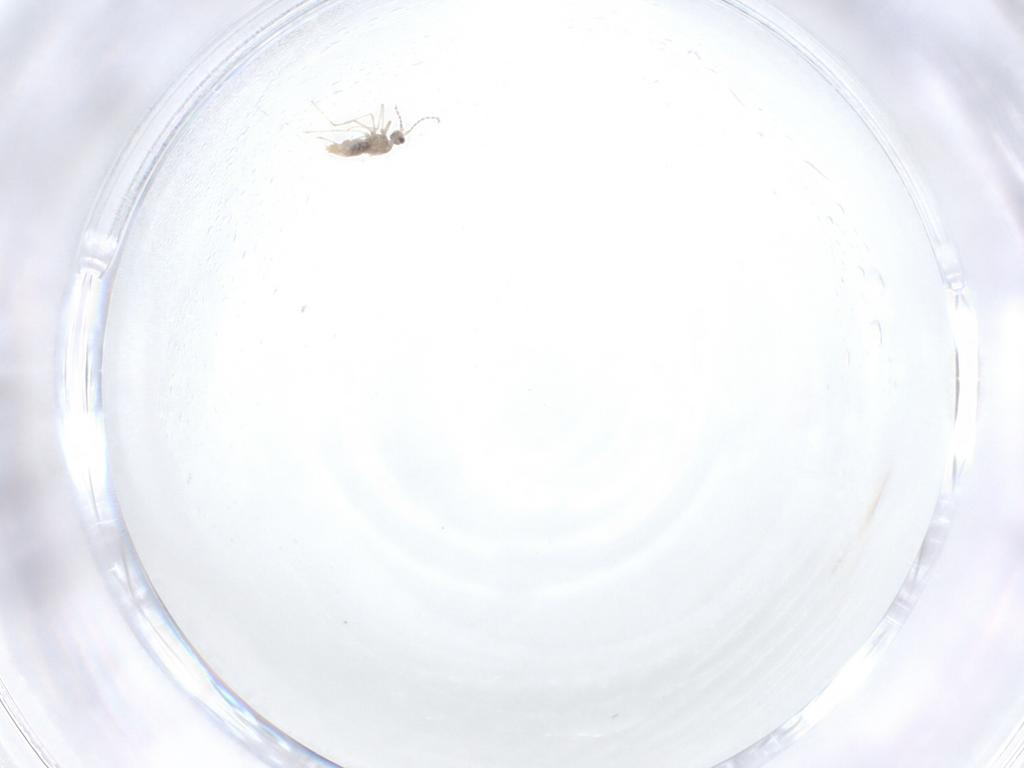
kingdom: Animalia
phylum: Arthropoda
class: Insecta
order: Diptera
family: Cecidomyiidae
